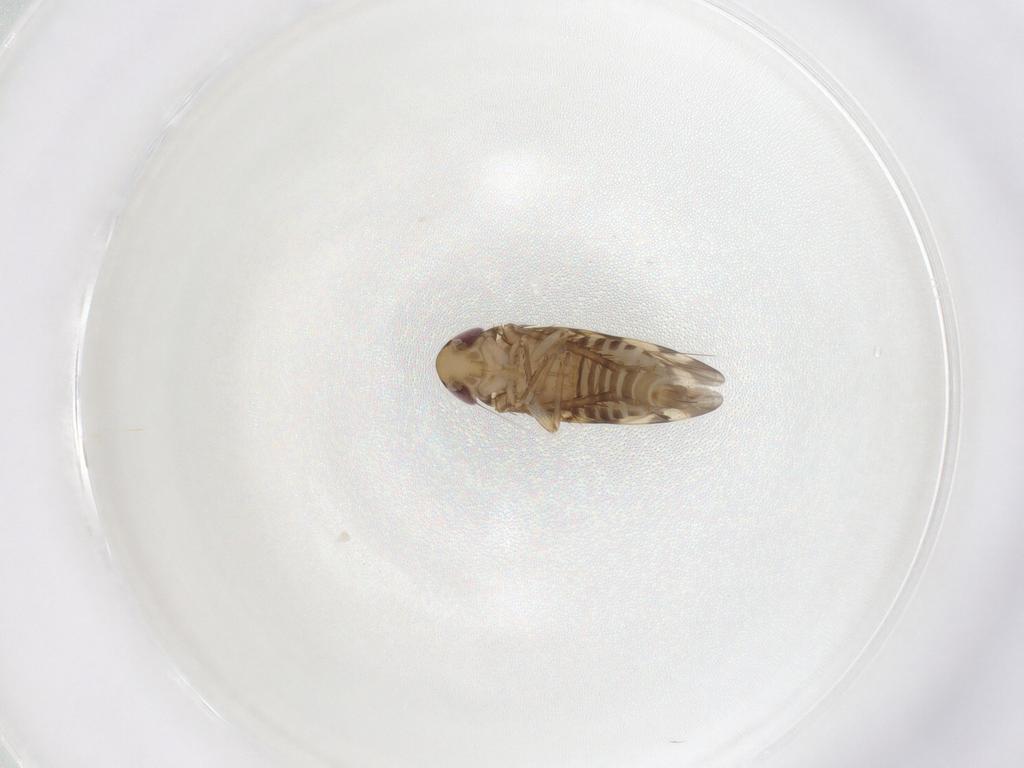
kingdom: Animalia
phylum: Arthropoda
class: Insecta
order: Hemiptera
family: Cicadellidae
